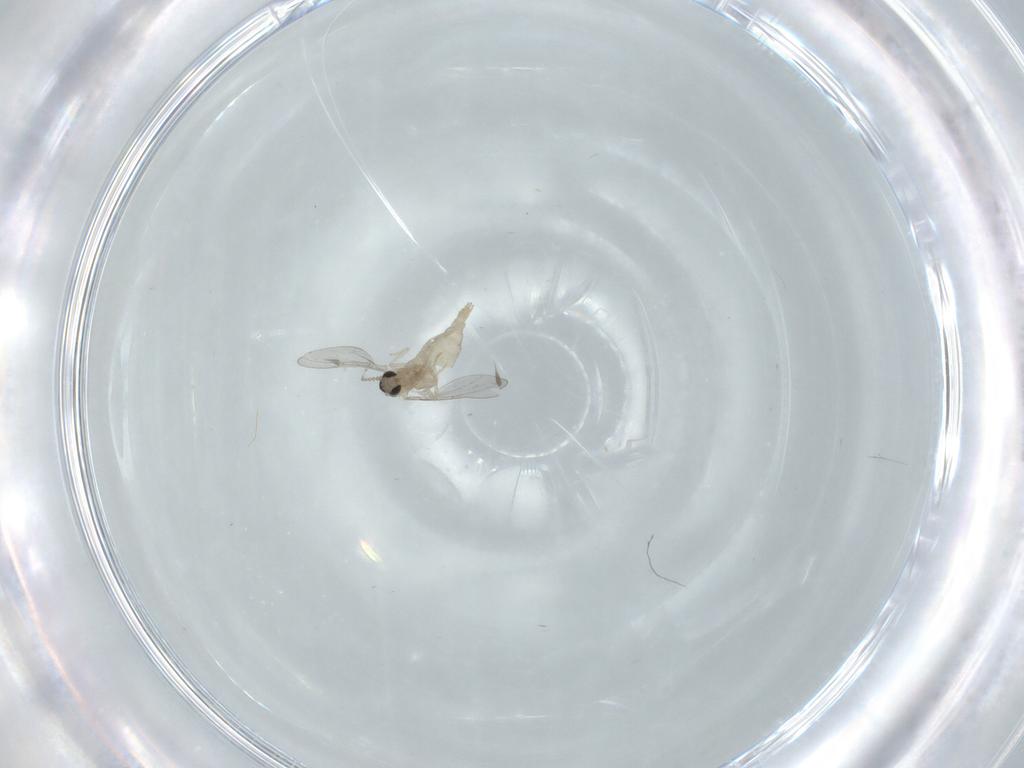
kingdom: Animalia
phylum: Arthropoda
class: Insecta
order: Diptera
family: Cecidomyiidae
